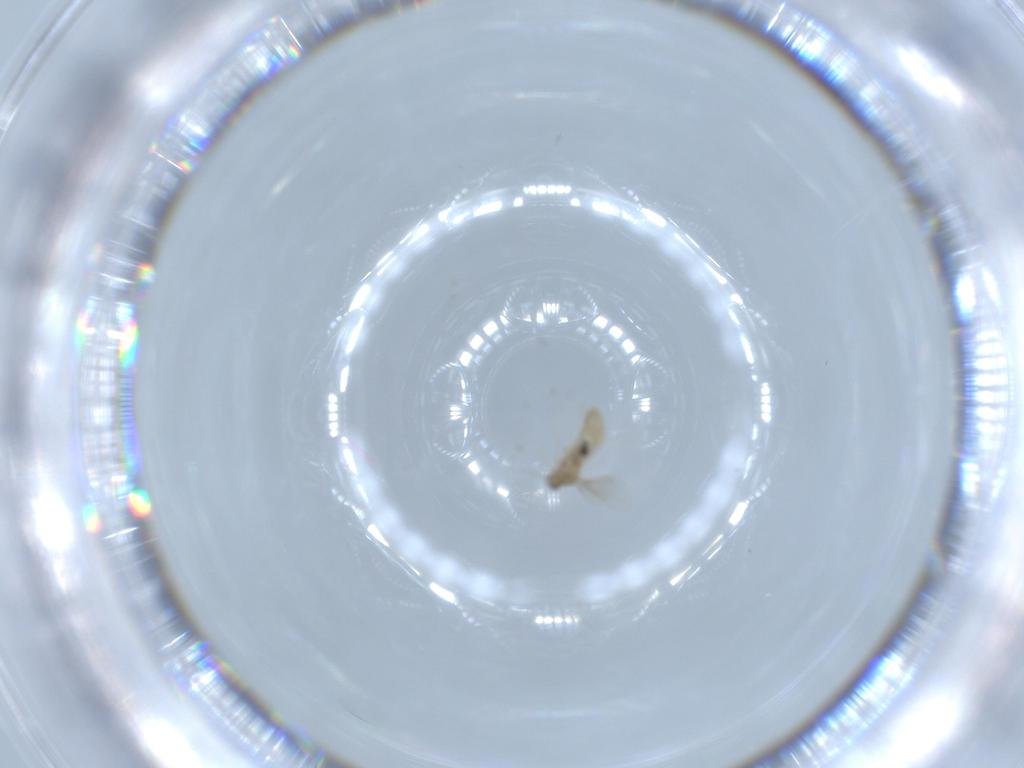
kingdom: Animalia
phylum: Arthropoda
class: Insecta
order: Diptera
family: Cecidomyiidae
